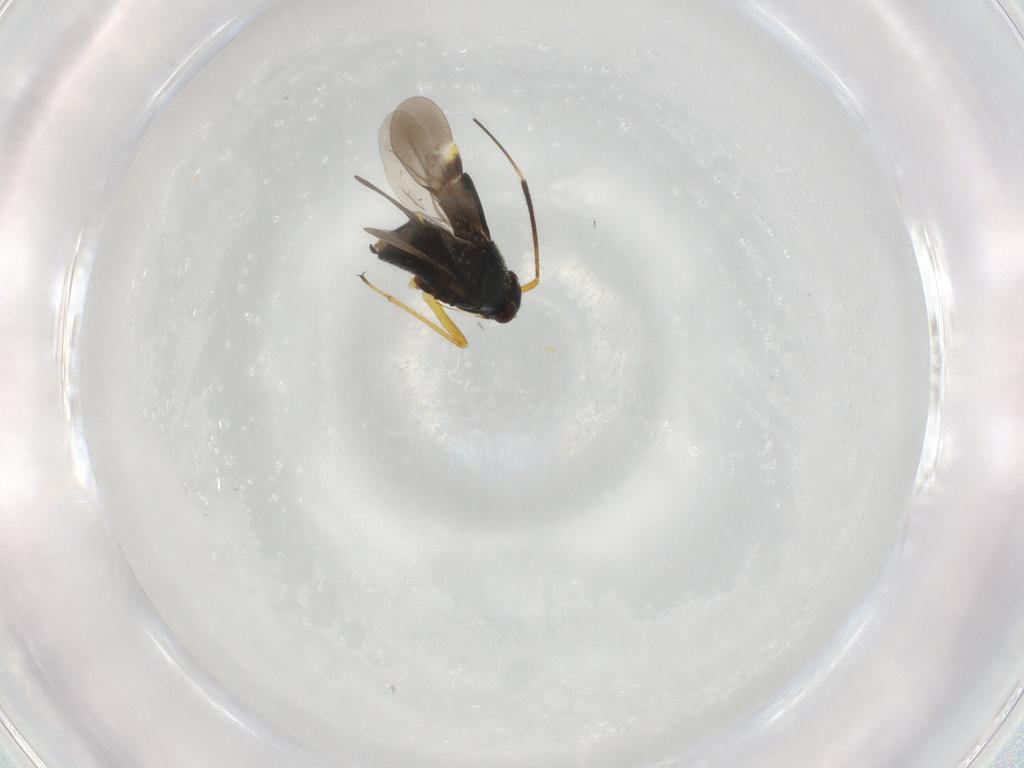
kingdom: Animalia
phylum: Arthropoda
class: Insecta
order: Hemiptera
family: Miridae
